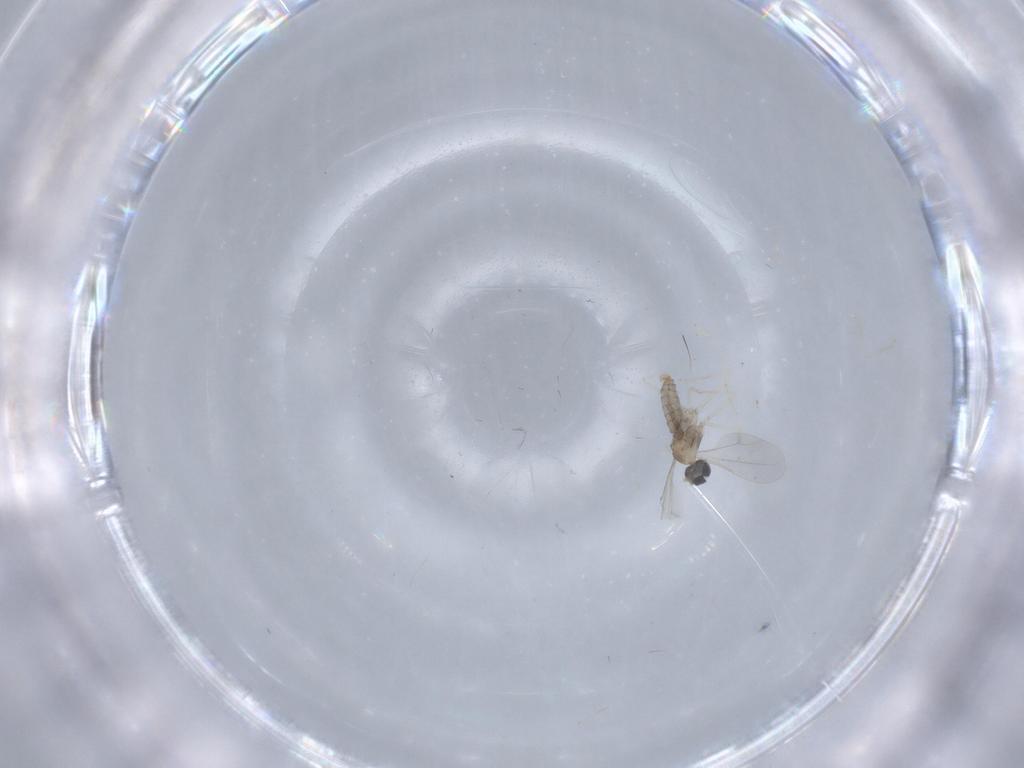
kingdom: Animalia
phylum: Arthropoda
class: Insecta
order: Diptera
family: Cecidomyiidae
